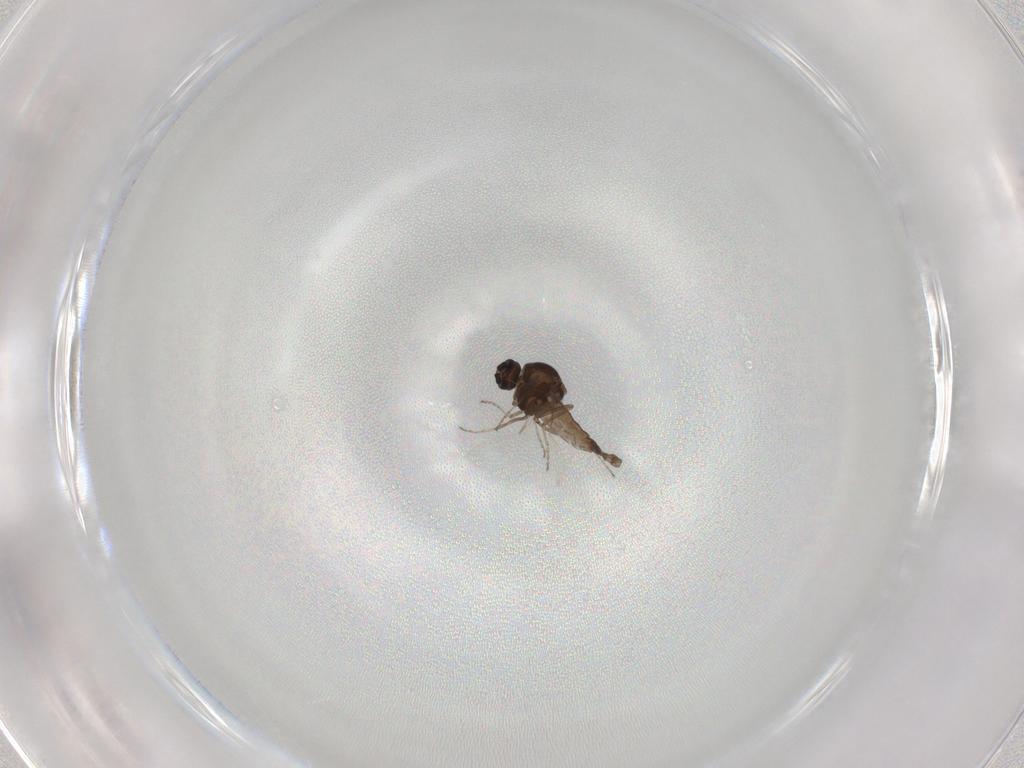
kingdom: Animalia
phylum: Arthropoda
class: Insecta
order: Diptera
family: Ceratopogonidae
